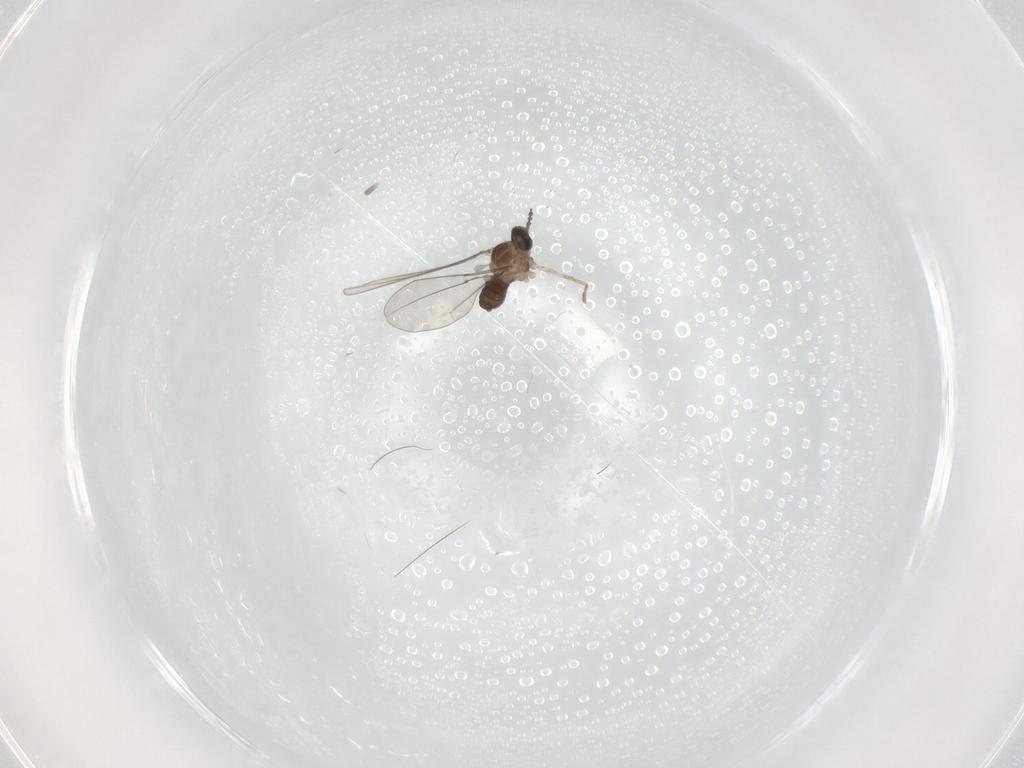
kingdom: Animalia
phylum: Arthropoda
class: Insecta
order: Diptera
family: Cecidomyiidae
